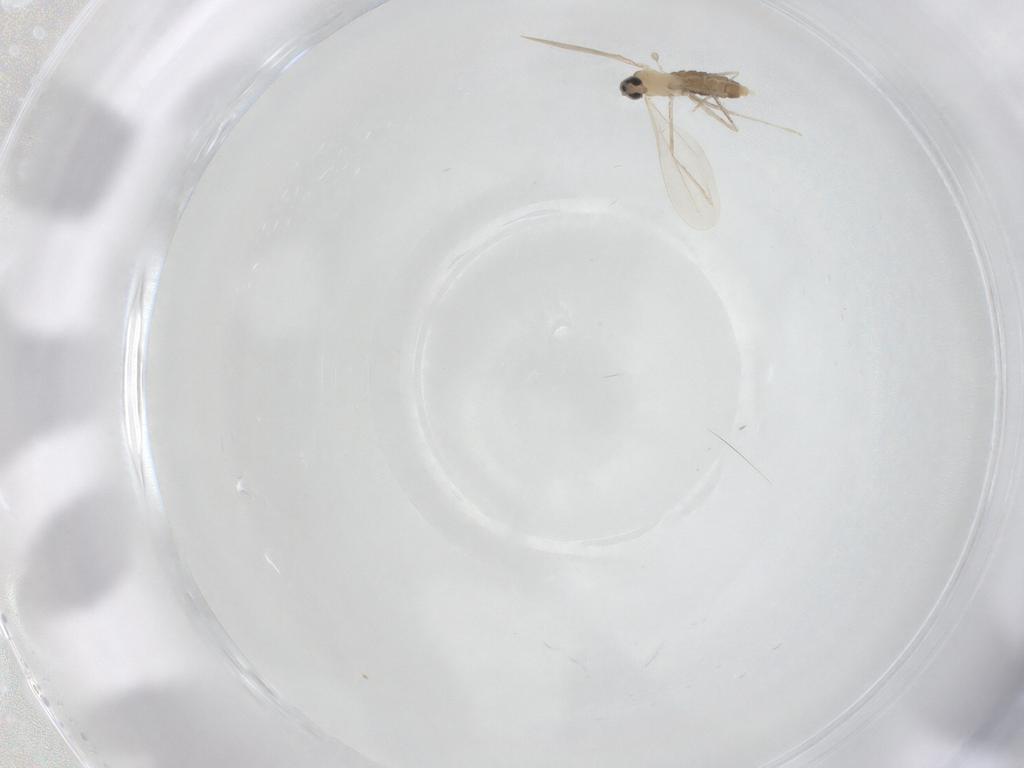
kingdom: Animalia
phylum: Arthropoda
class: Insecta
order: Diptera
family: Cecidomyiidae
